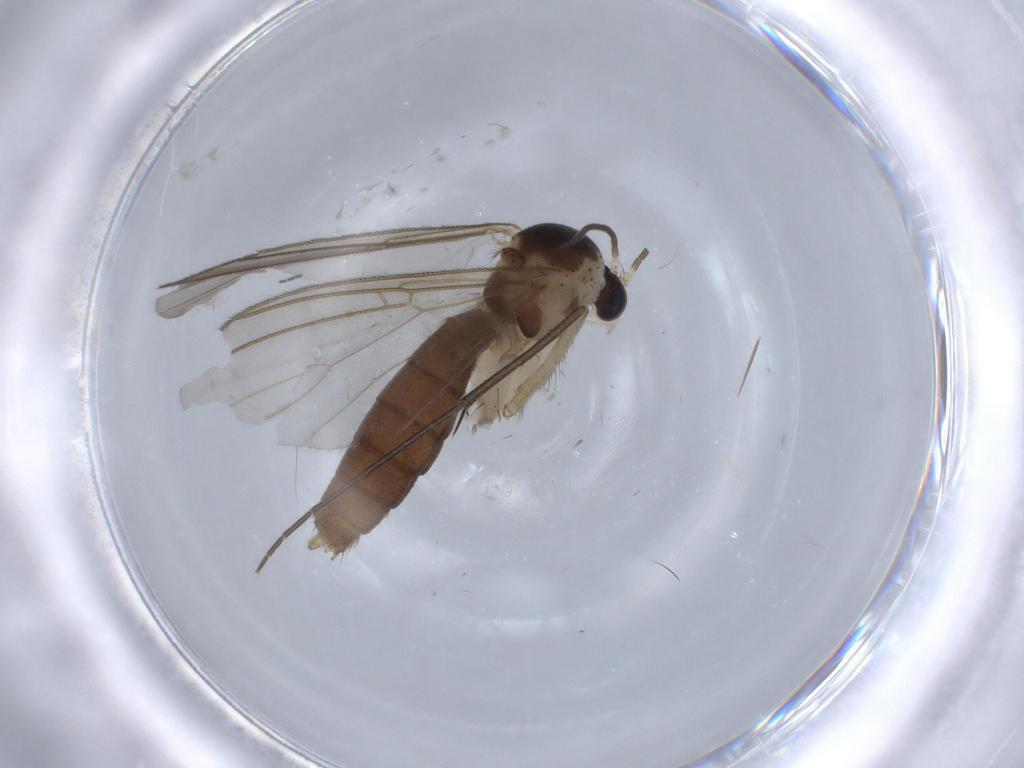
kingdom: Animalia
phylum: Arthropoda
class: Insecta
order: Diptera
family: Mycetophilidae
